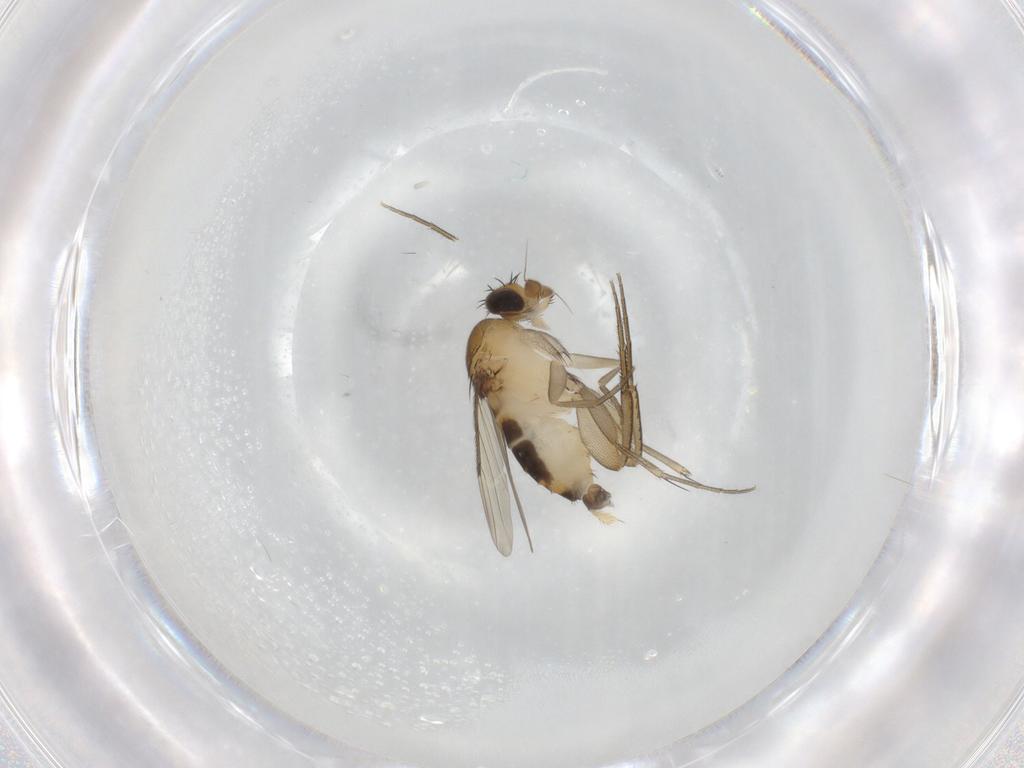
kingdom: Animalia
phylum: Arthropoda
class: Insecta
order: Diptera
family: Phoridae
